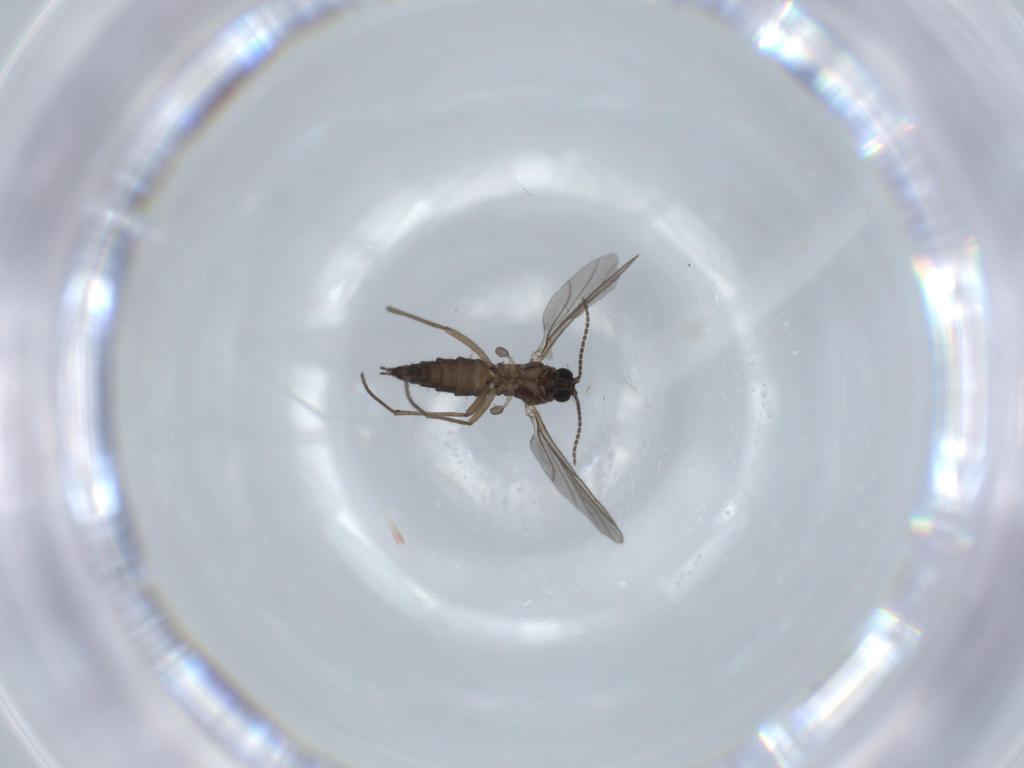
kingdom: Animalia
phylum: Arthropoda
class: Insecta
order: Diptera
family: Sciaridae
